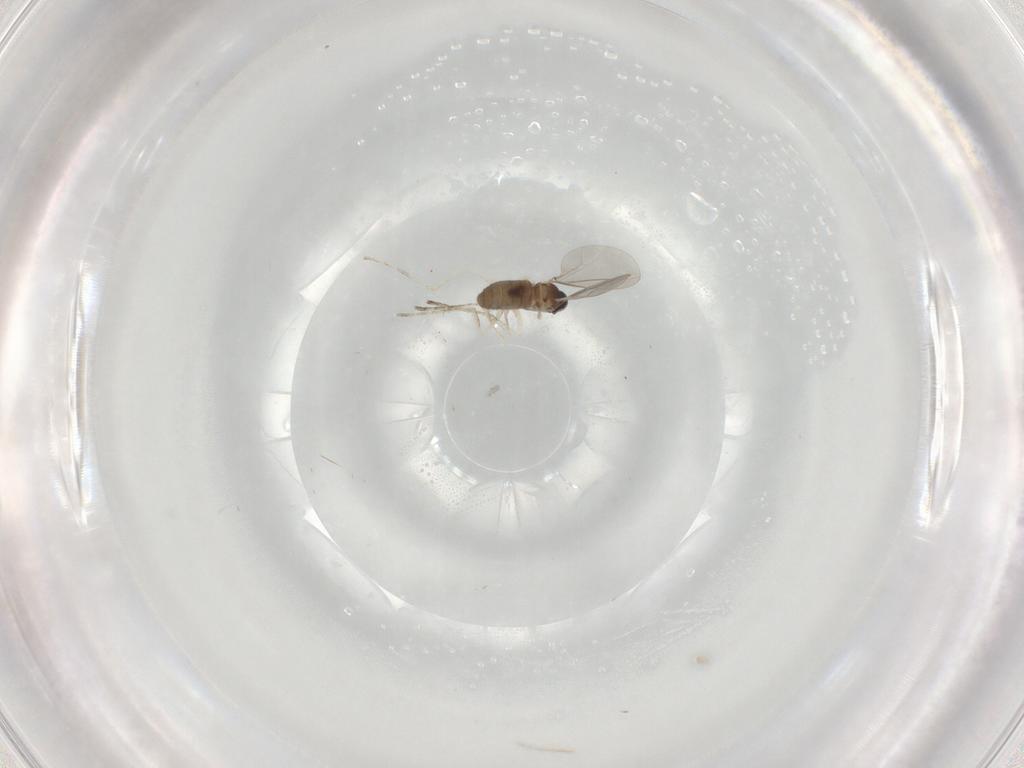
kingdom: Animalia
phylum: Arthropoda
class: Insecta
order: Diptera
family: Cecidomyiidae
